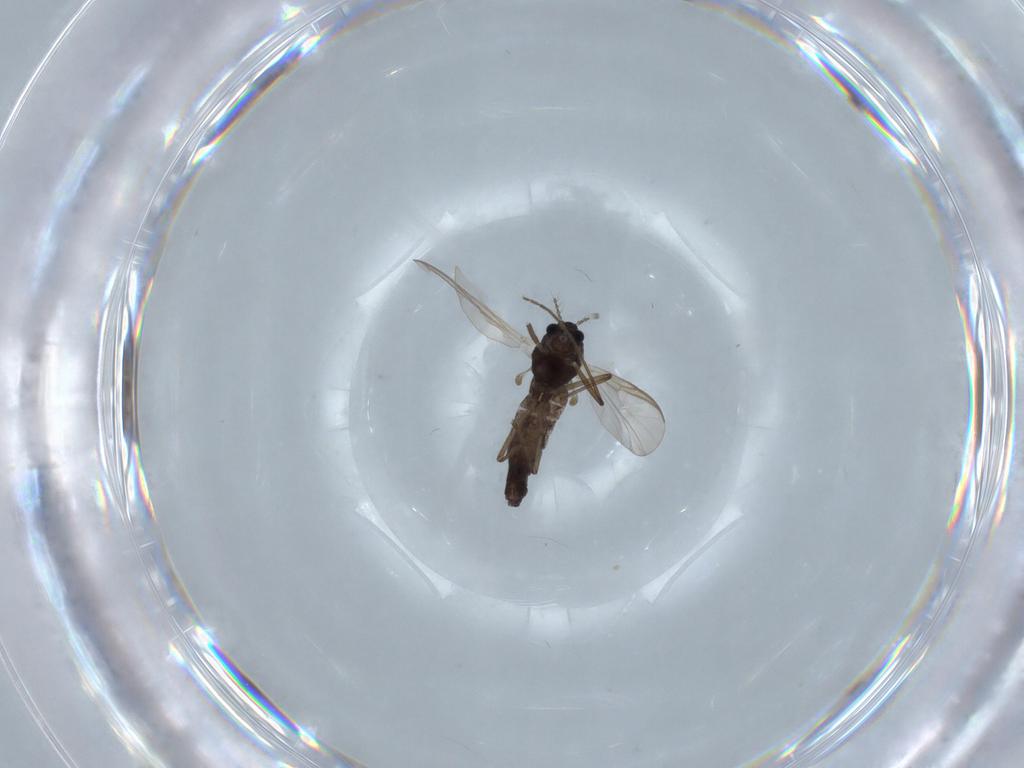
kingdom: Animalia
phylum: Arthropoda
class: Insecta
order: Diptera
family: Chironomidae
